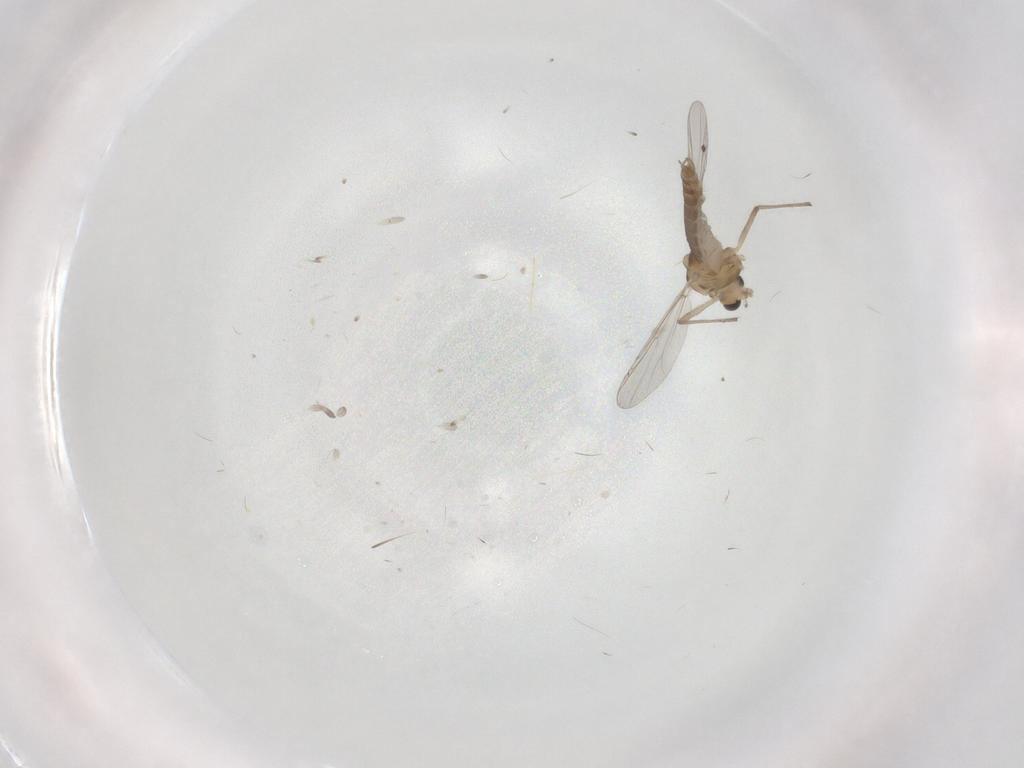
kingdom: Animalia
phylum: Arthropoda
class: Insecta
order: Diptera
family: Chironomidae
